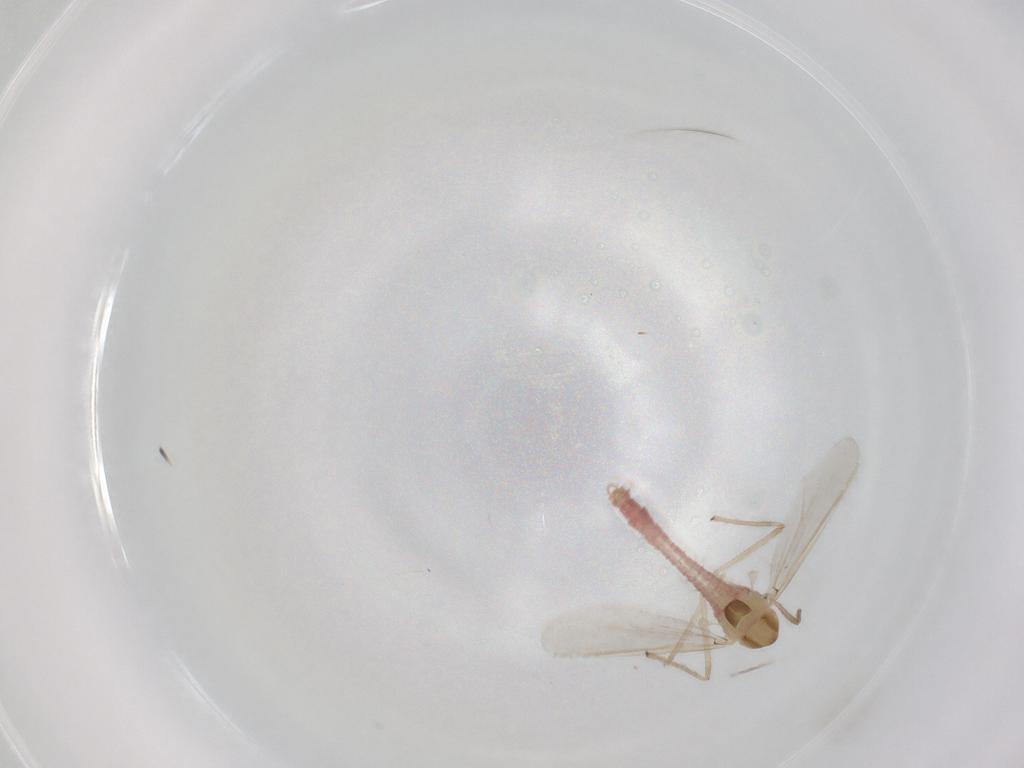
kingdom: Animalia
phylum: Arthropoda
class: Insecta
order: Diptera
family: Chironomidae
